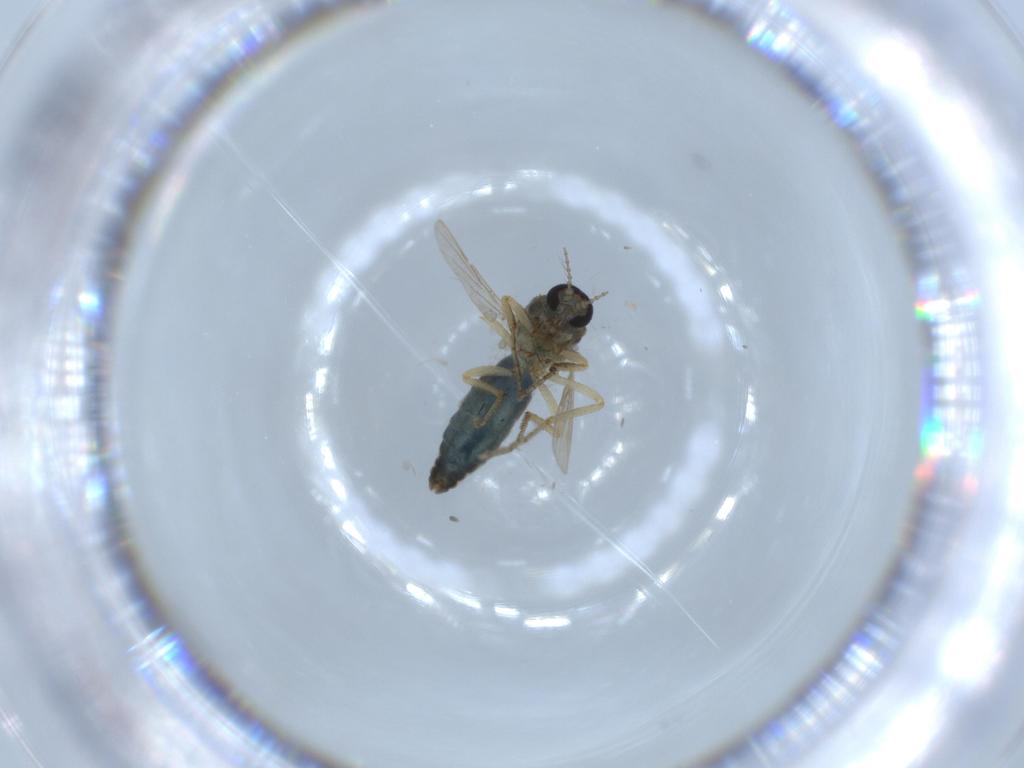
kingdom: Animalia
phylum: Arthropoda
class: Insecta
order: Diptera
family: Ceratopogonidae
